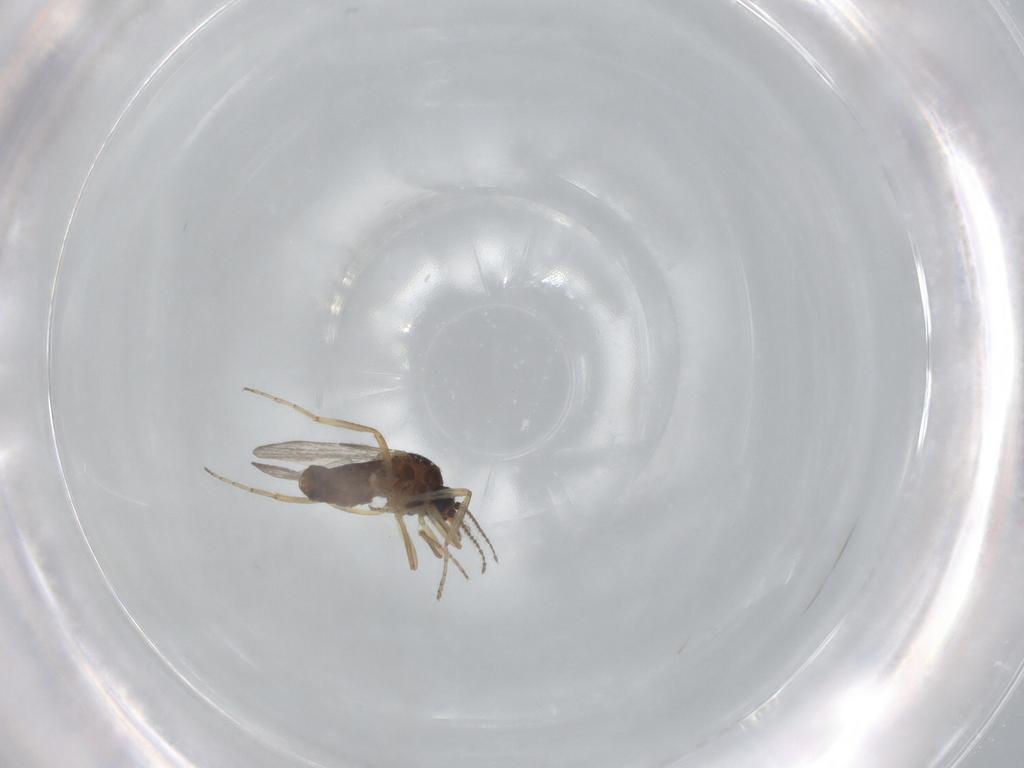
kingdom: Animalia
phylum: Arthropoda
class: Insecta
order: Diptera
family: Ceratopogonidae
